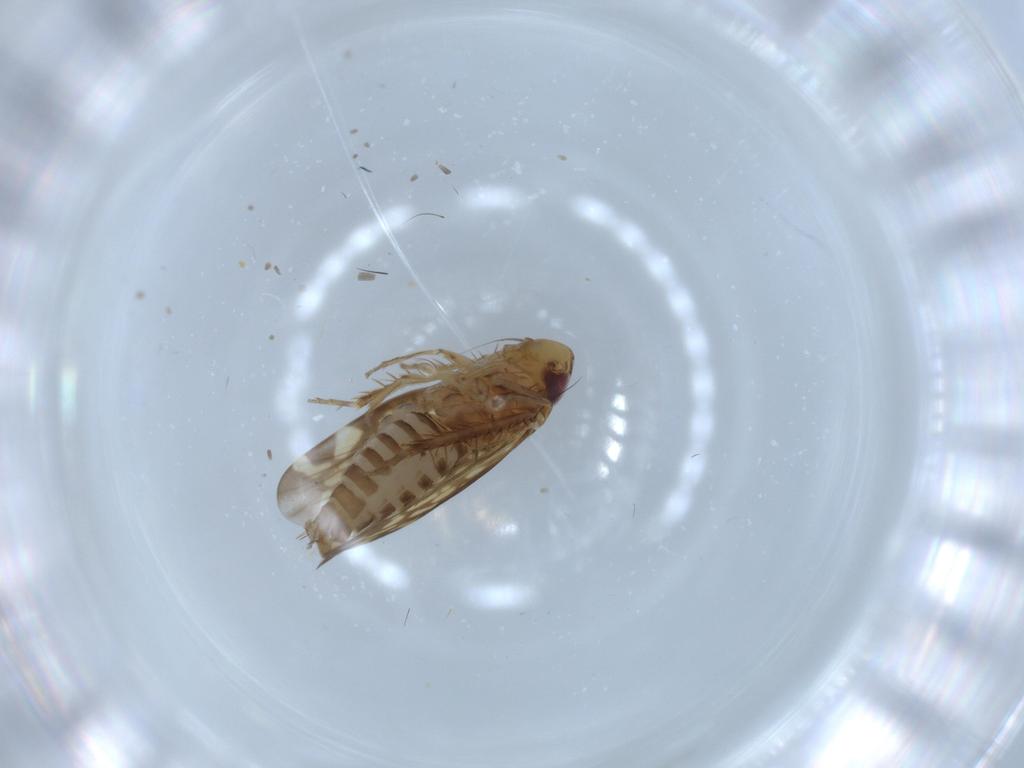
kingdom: Animalia
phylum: Arthropoda
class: Insecta
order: Hemiptera
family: Cicadellidae
